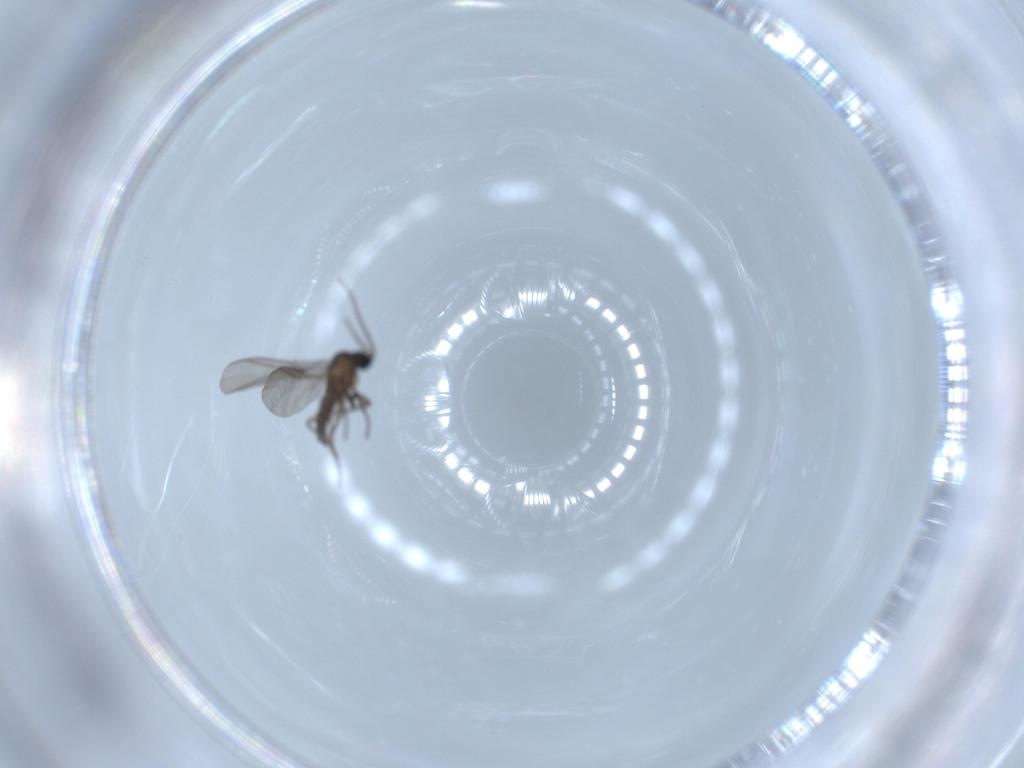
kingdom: Animalia
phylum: Arthropoda
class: Insecta
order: Diptera
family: Sciaridae
